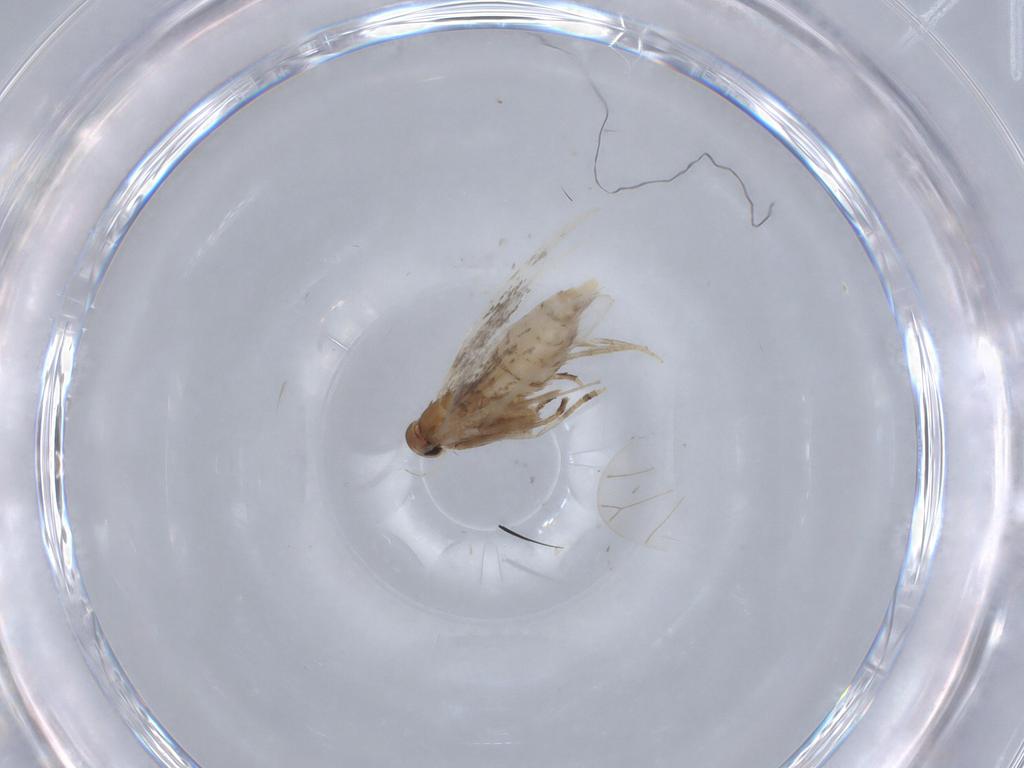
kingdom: Animalia
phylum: Arthropoda
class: Insecta
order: Lepidoptera
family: Elachistidae
